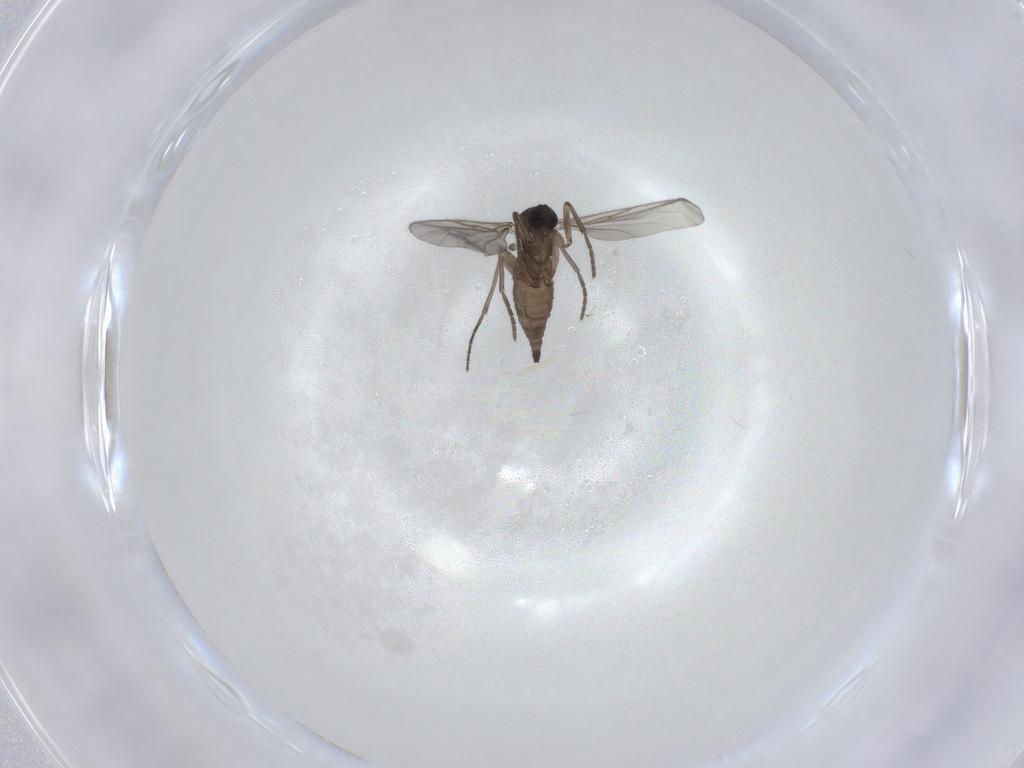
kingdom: Animalia
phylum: Arthropoda
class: Insecta
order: Diptera
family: Sciaridae
